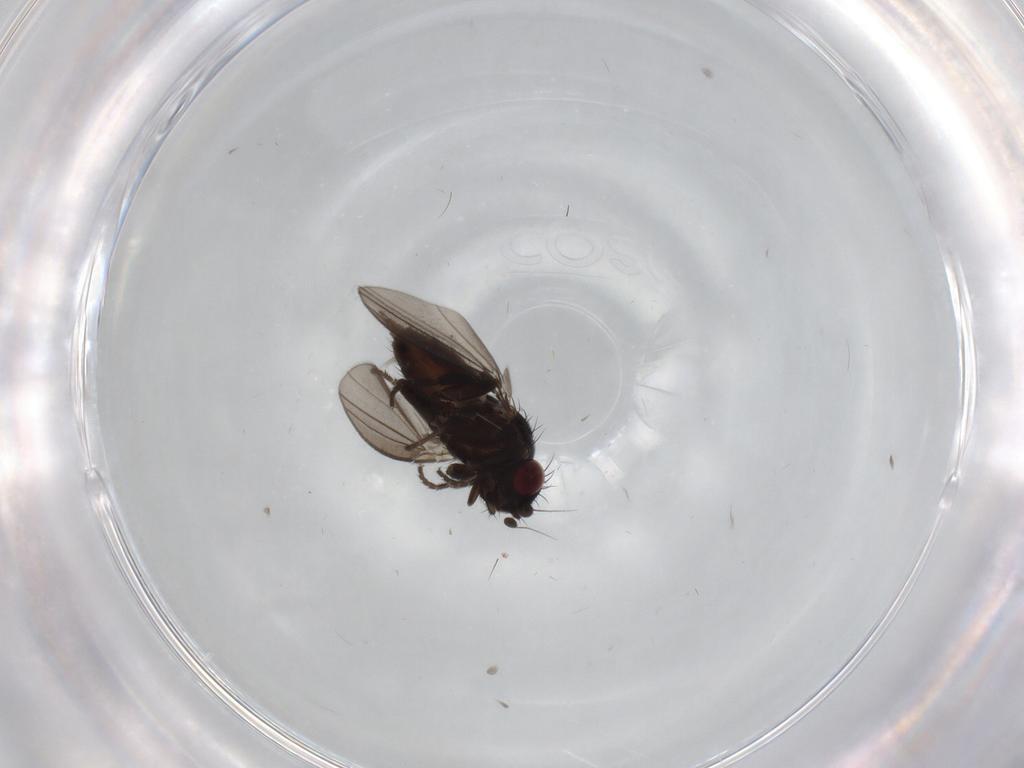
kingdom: Animalia
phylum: Arthropoda
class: Insecta
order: Diptera
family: Milichiidae
